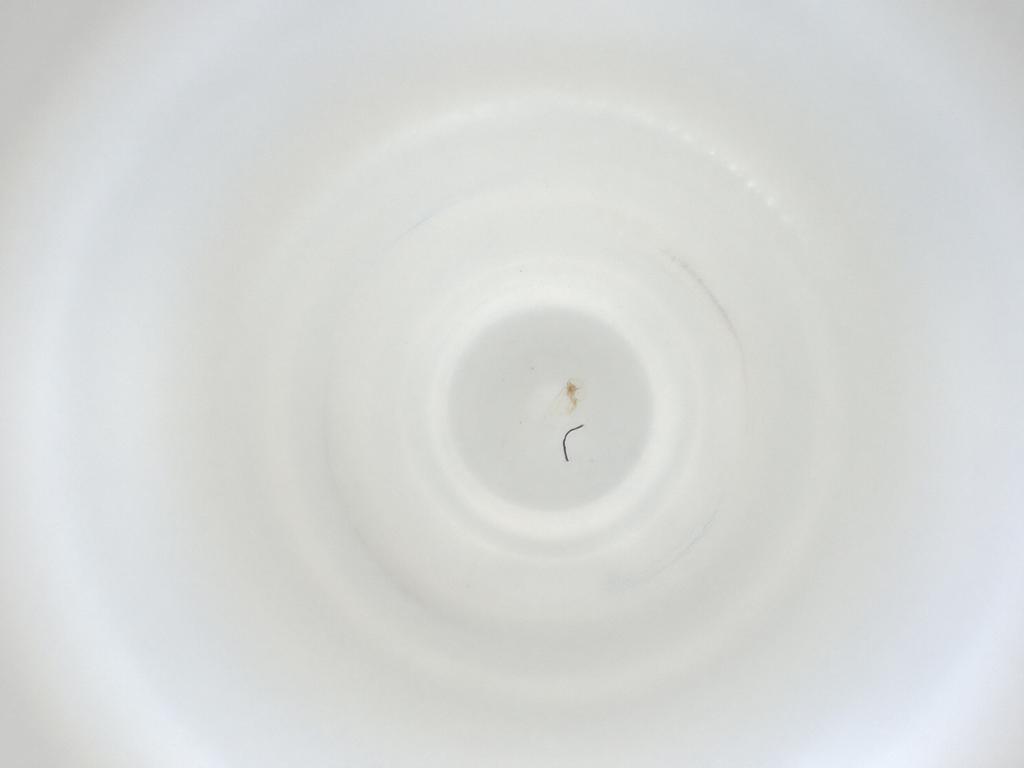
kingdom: Animalia
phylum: Arthropoda
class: Insecta
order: Diptera
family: Cecidomyiidae
